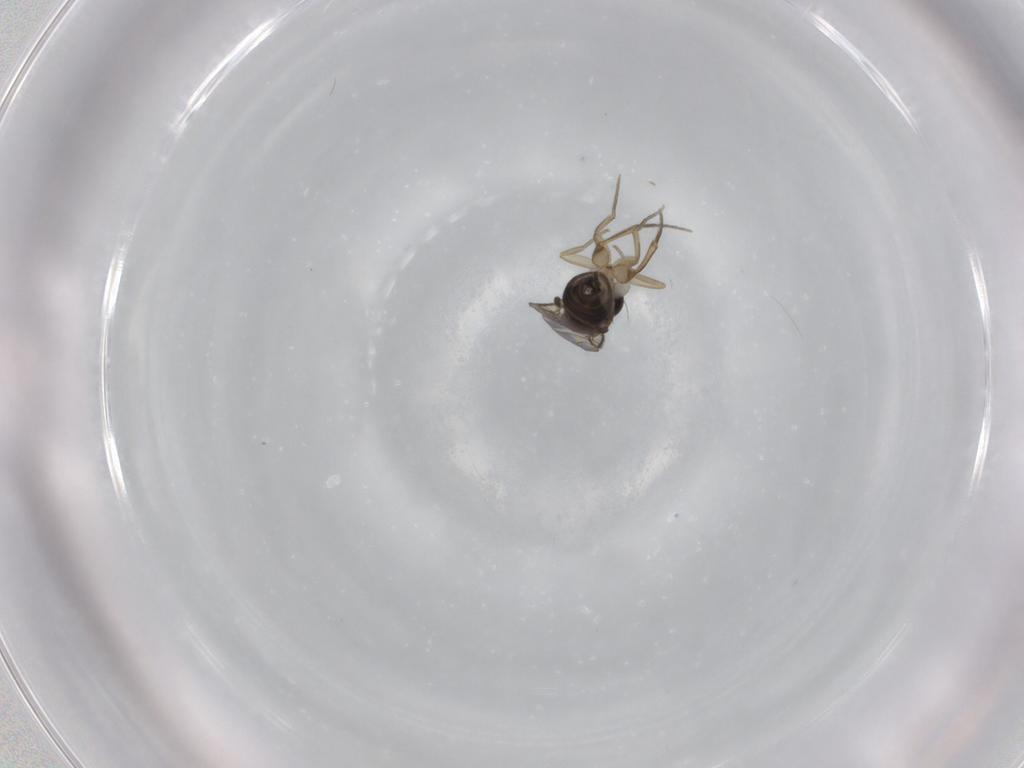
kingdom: Animalia
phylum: Arthropoda
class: Insecta
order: Diptera
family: Phoridae
